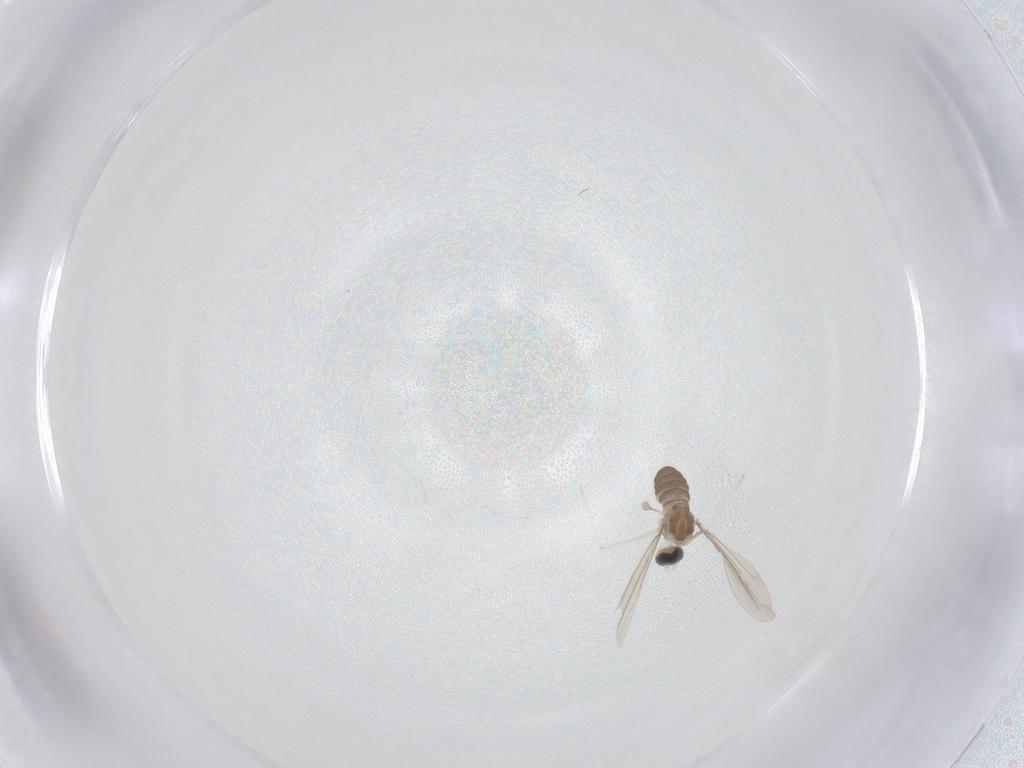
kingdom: Animalia
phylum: Arthropoda
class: Insecta
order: Diptera
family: Cecidomyiidae
